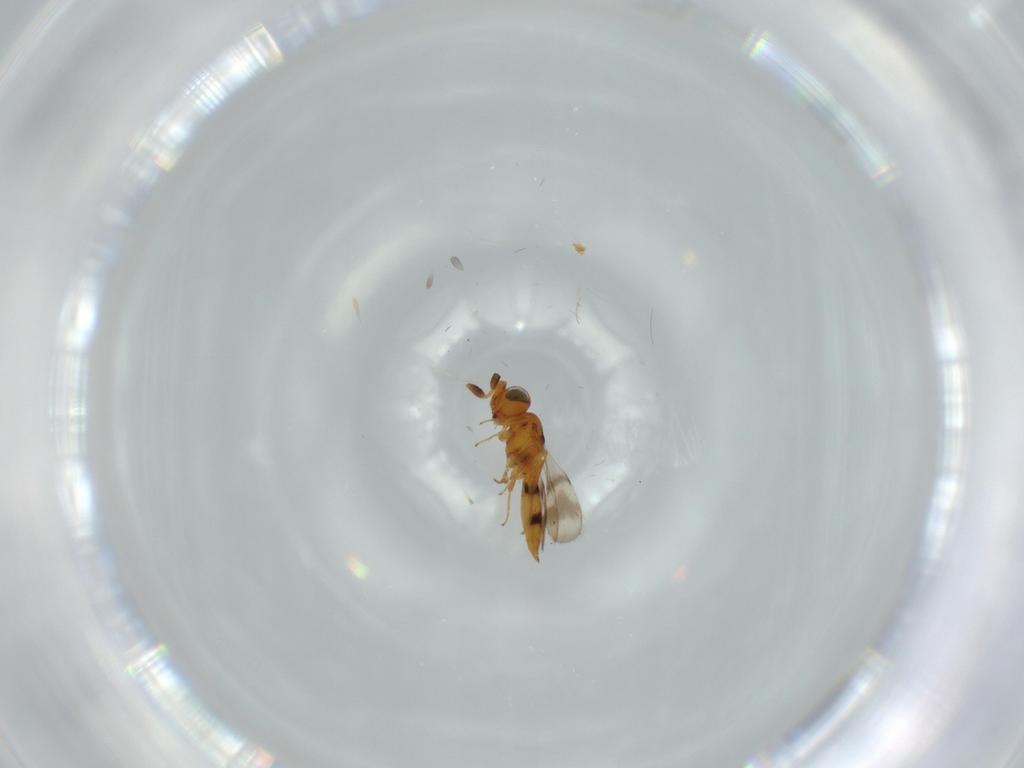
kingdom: Animalia
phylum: Arthropoda
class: Insecta
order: Hymenoptera
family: Scelionidae
